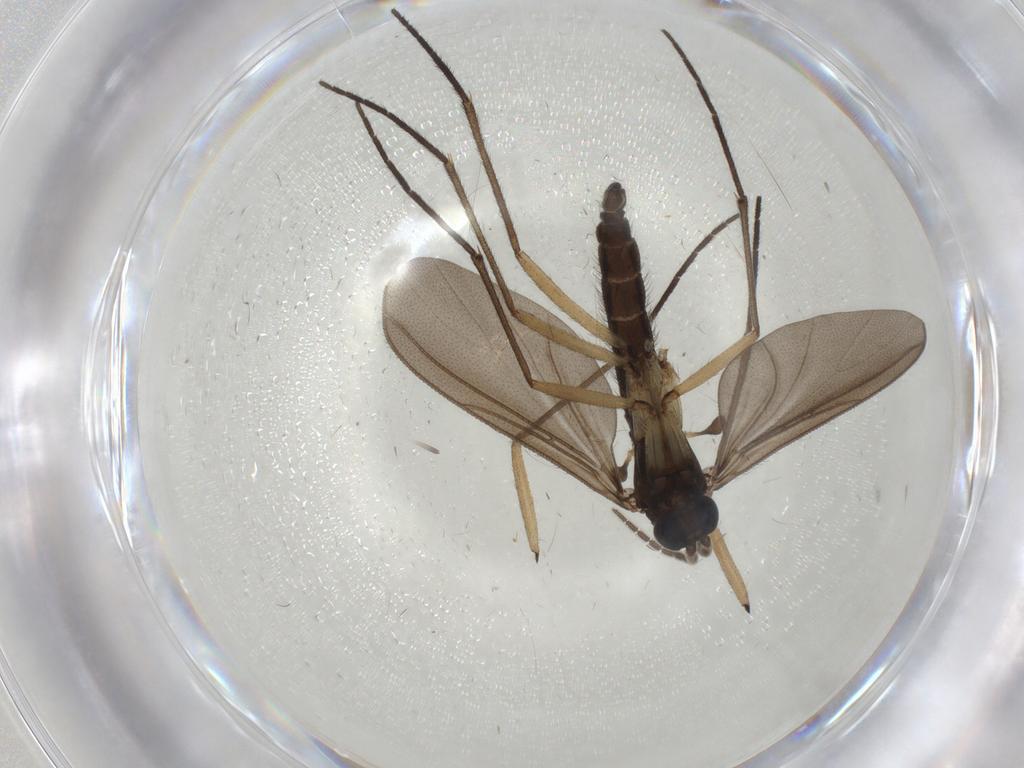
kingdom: Animalia
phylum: Arthropoda
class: Insecta
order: Diptera
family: Sciaridae
